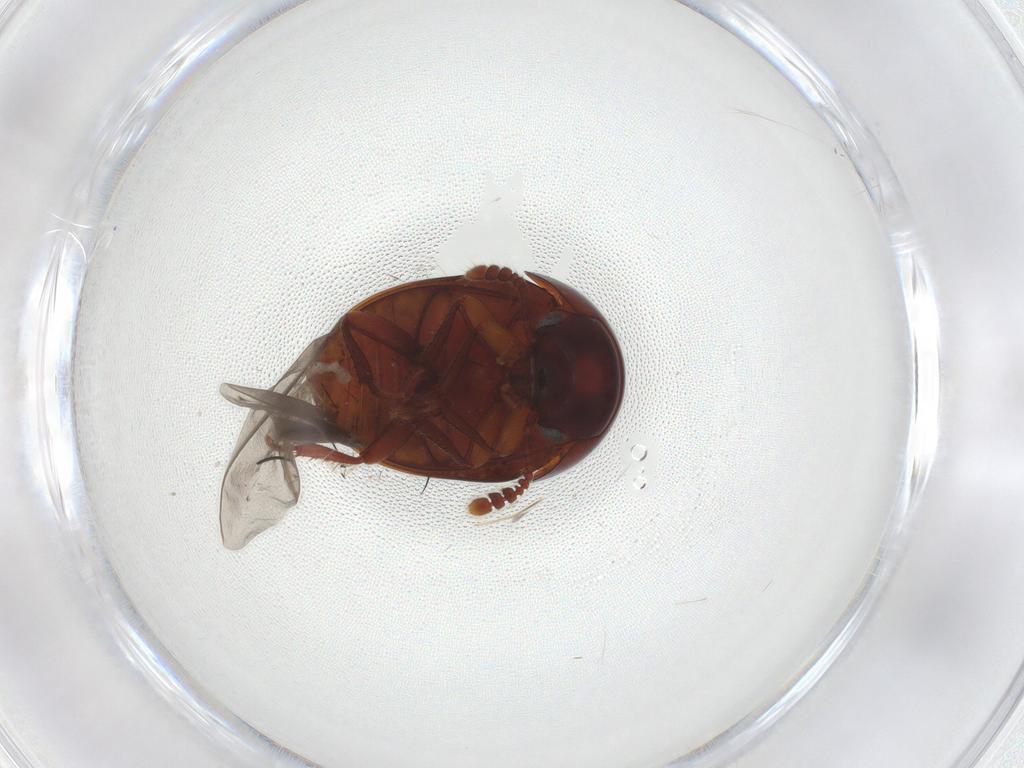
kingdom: Animalia
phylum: Arthropoda
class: Insecta
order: Coleoptera
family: Leiodidae
